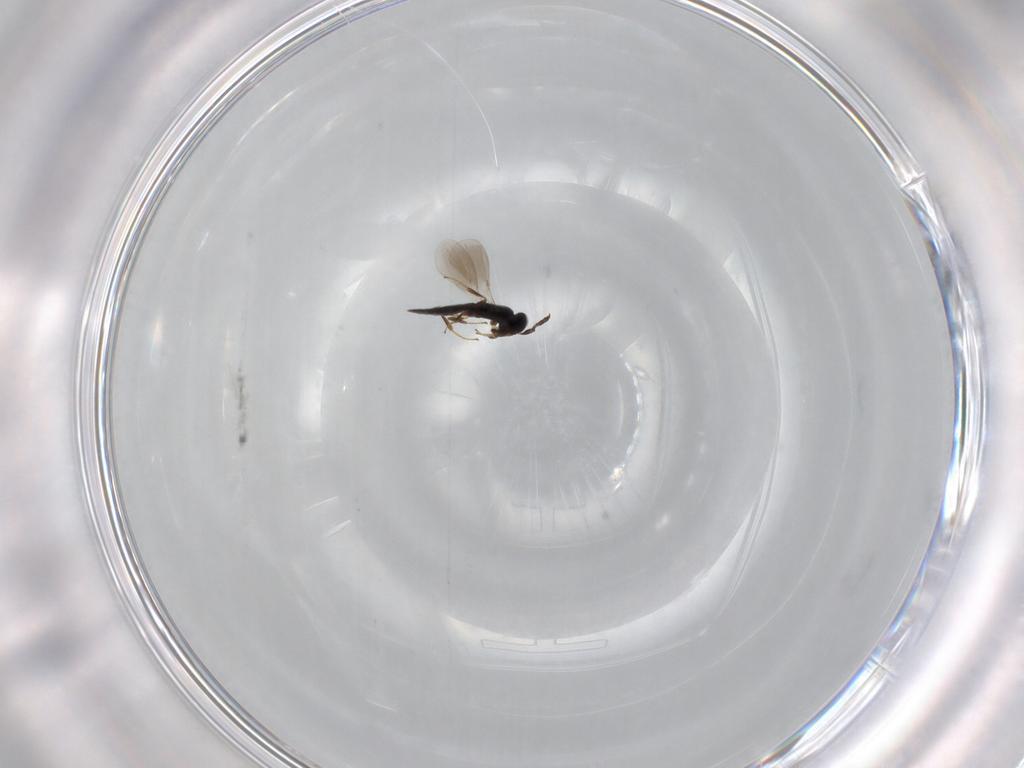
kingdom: Animalia
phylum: Arthropoda
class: Insecta
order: Hymenoptera
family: Platygastridae
